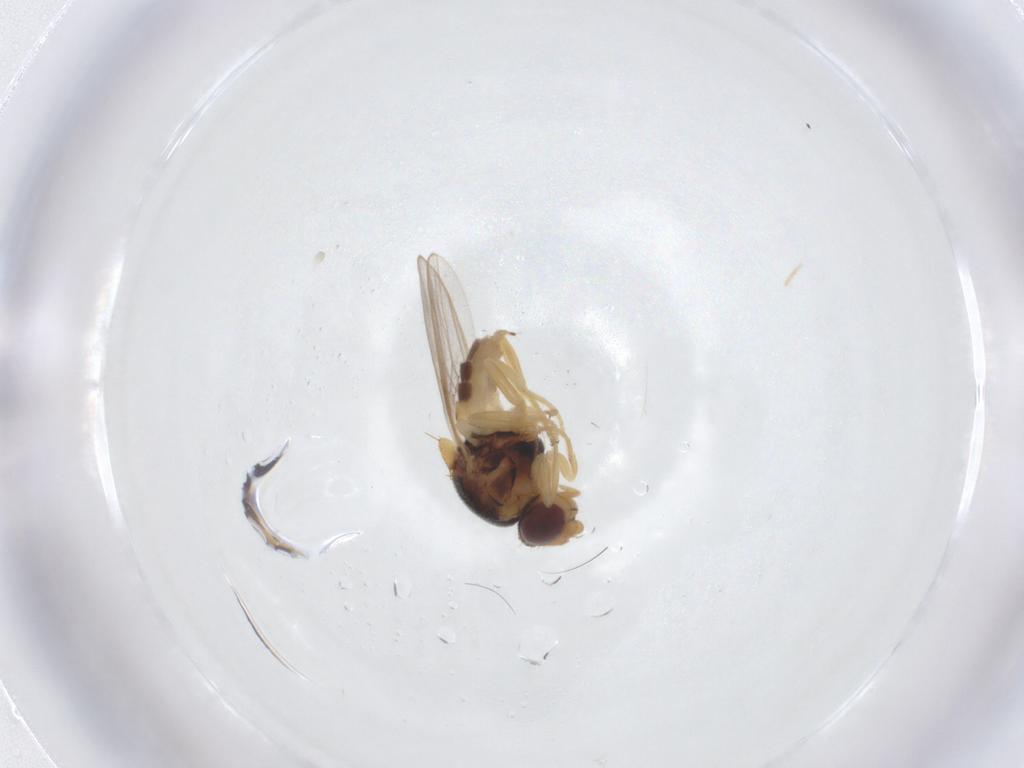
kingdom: Animalia
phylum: Arthropoda
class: Insecta
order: Diptera
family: Chloropidae
